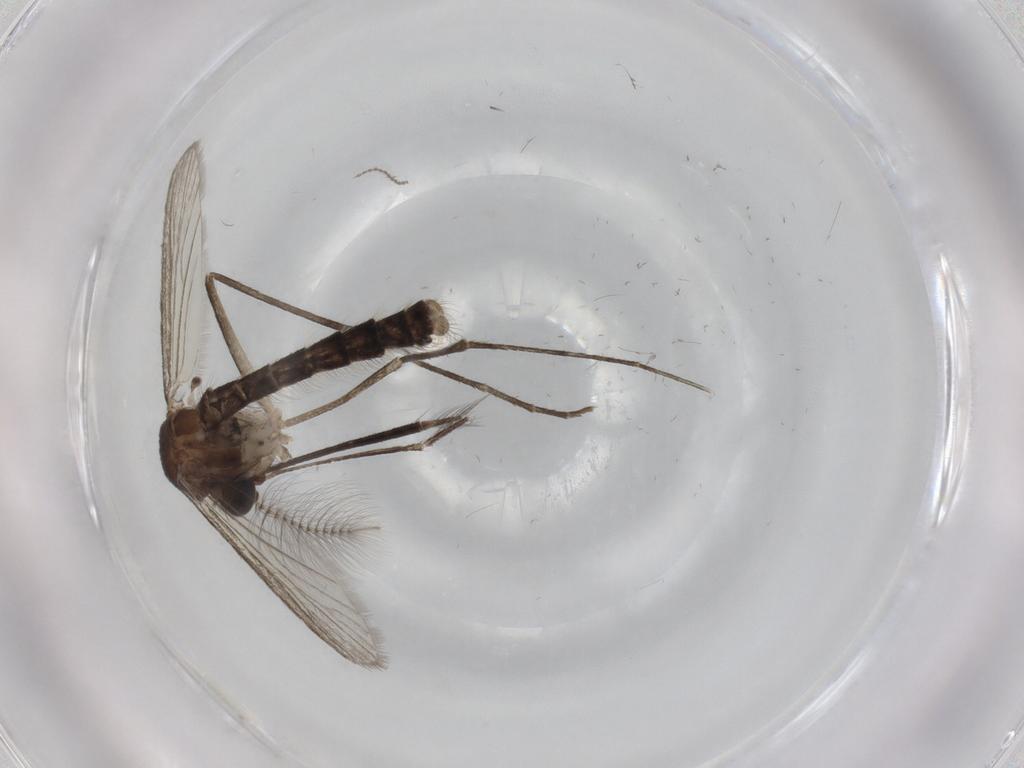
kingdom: Animalia
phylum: Arthropoda
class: Insecta
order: Diptera
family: Cecidomyiidae
